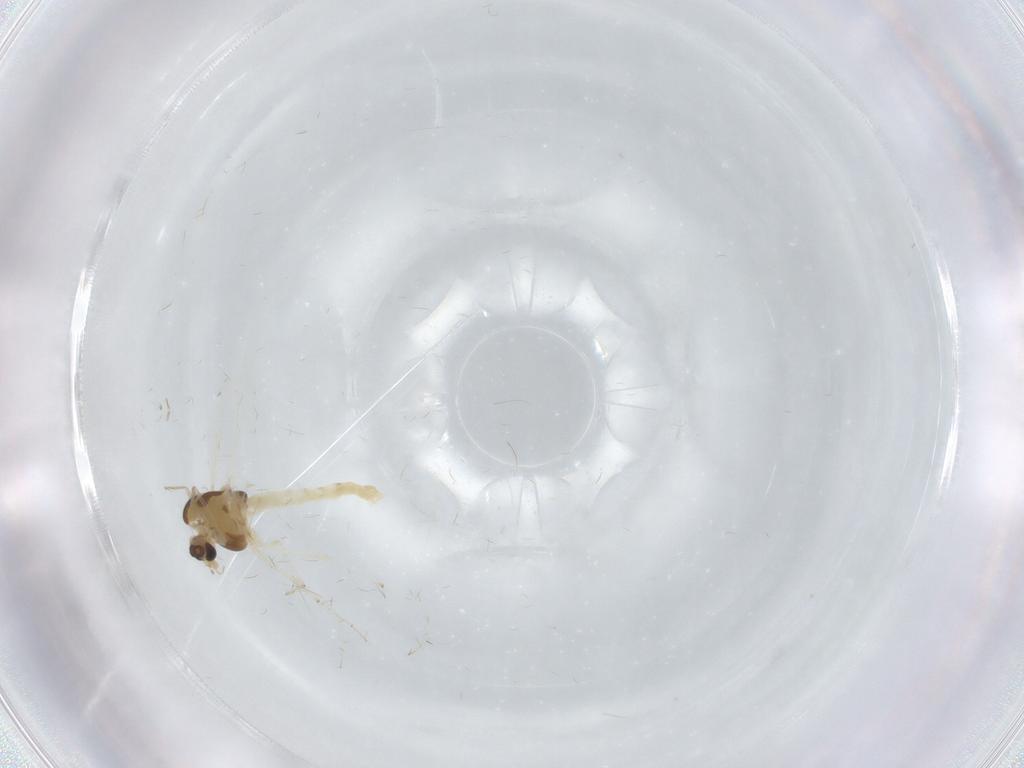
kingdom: Animalia
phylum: Arthropoda
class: Insecta
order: Diptera
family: Chironomidae
